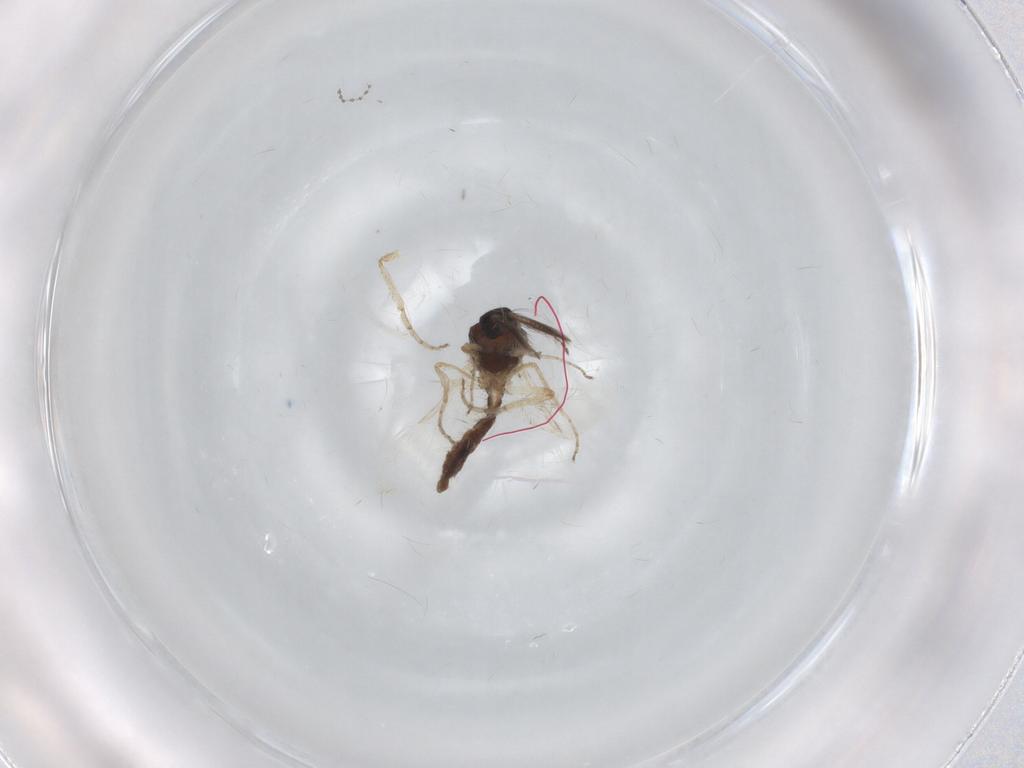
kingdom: Animalia
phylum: Arthropoda
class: Insecta
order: Diptera
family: Ceratopogonidae
